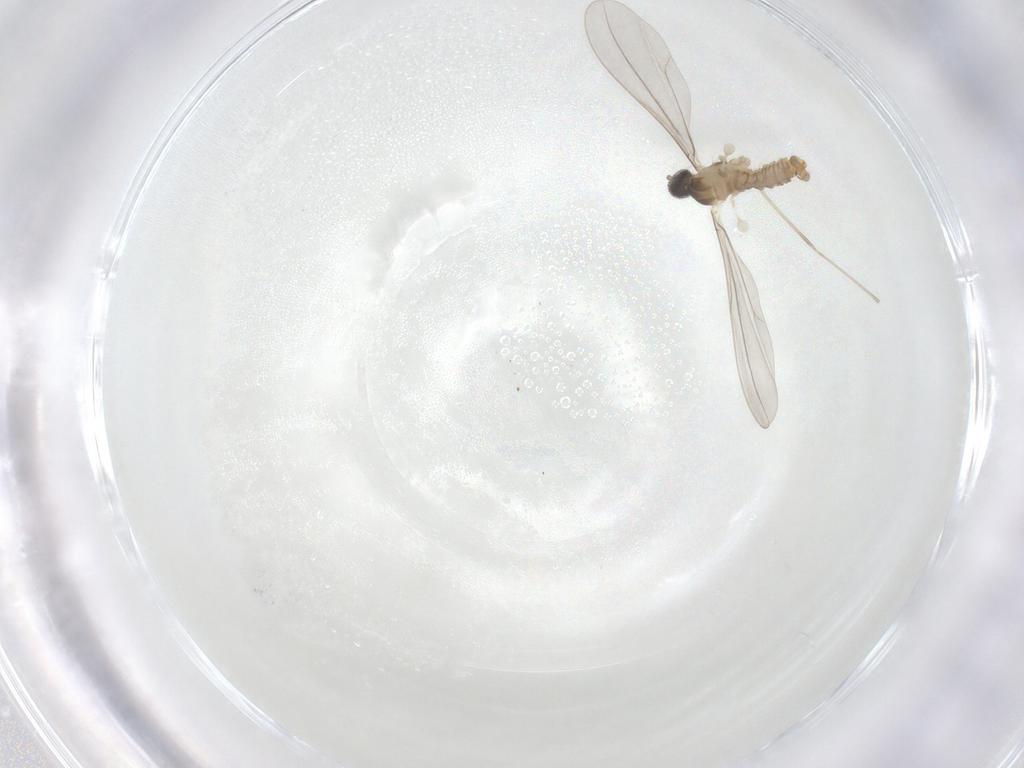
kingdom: Animalia
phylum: Arthropoda
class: Insecta
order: Diptera
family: Cecidomyiidae
